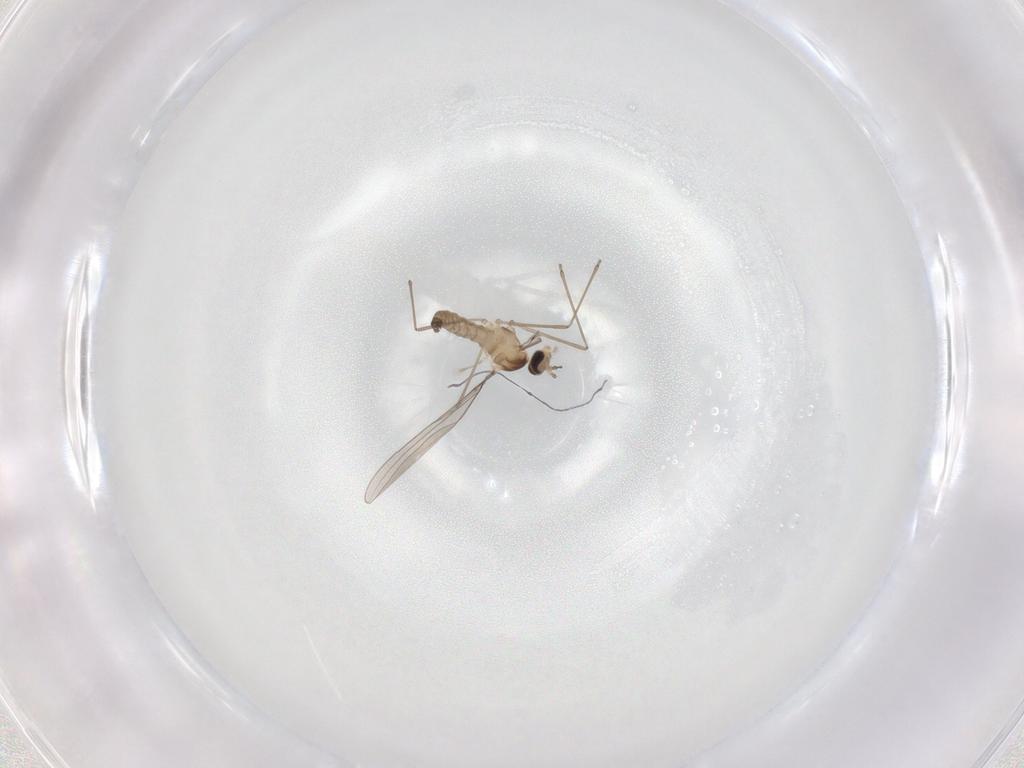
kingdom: Animalia
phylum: Arthropoda
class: Insecta
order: Diptera
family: Cecidomyiidae
